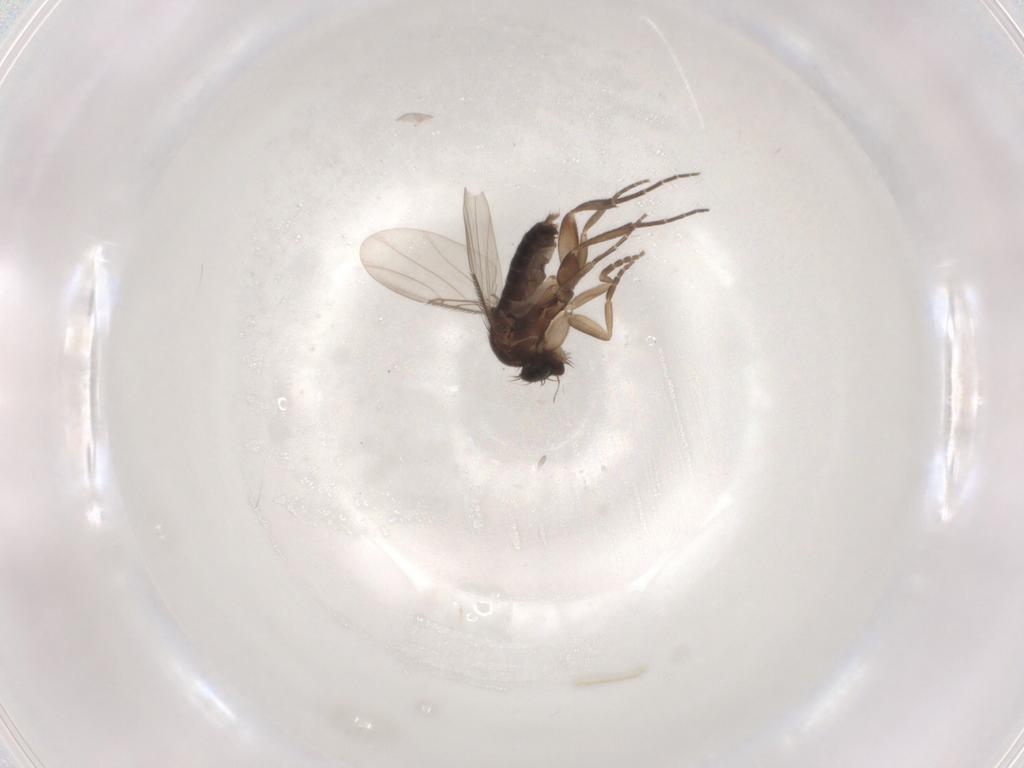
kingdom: Animalia
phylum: Arthropoda
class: Insecta
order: Diptera
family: Phoridae
